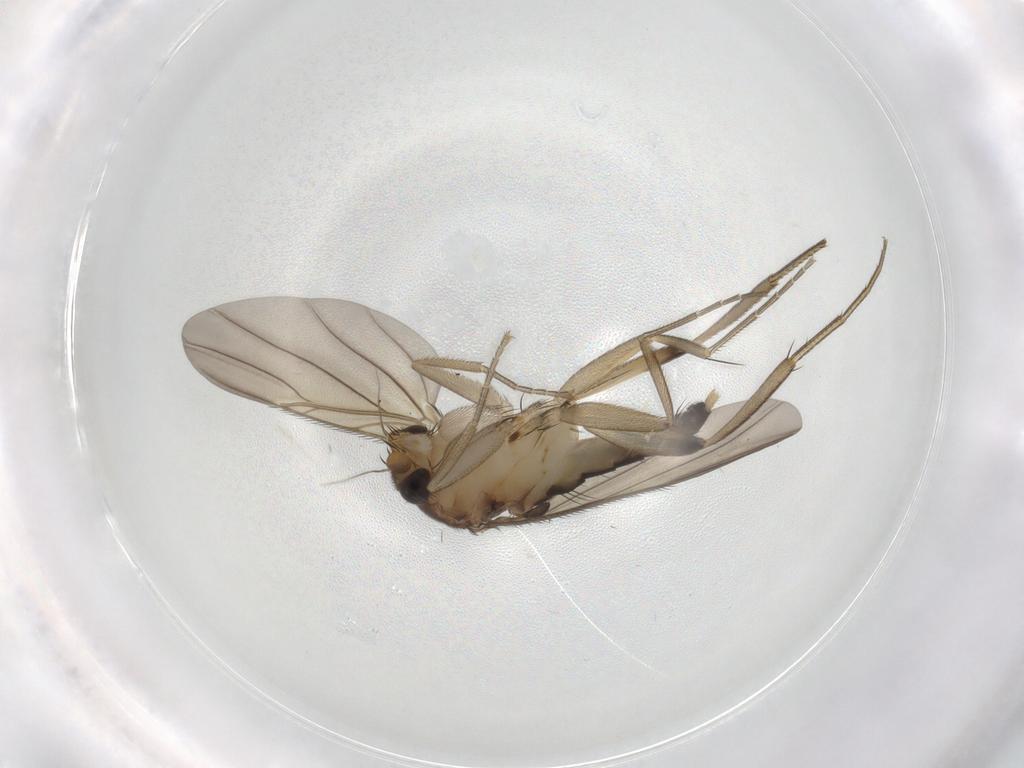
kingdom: Animalia
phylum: Arthropoda
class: Insecta
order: Diptera
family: Phoridae
